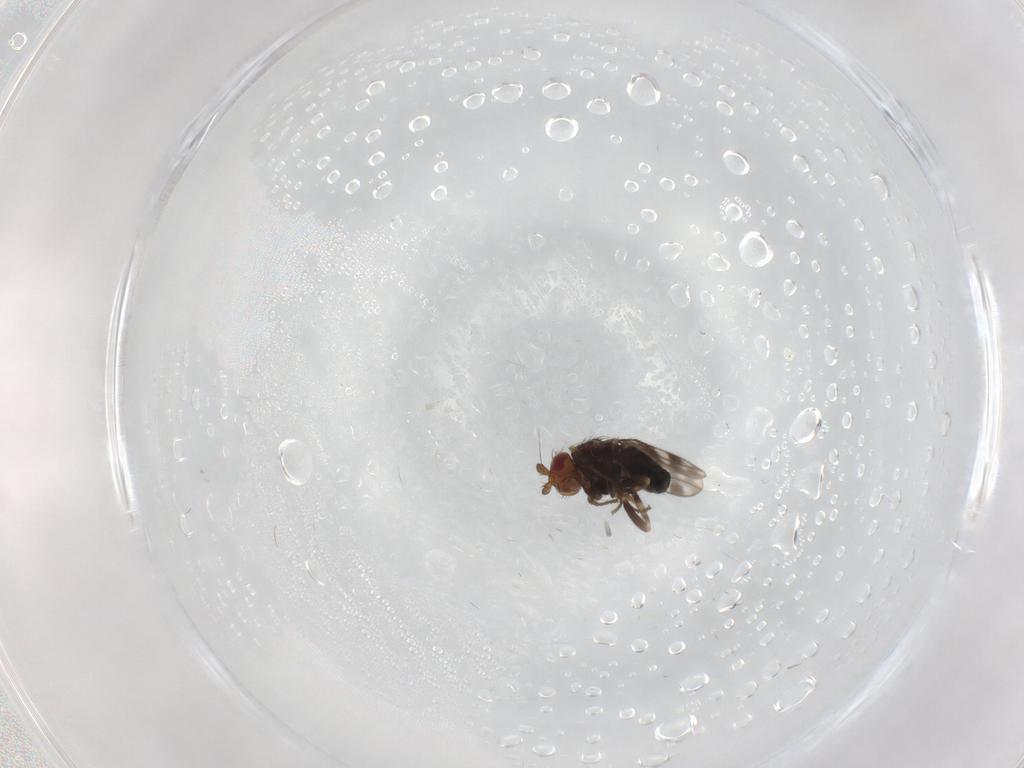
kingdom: Animalia
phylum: Arthropoda
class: Insecta
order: Diptera
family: Sphaeroceridae
